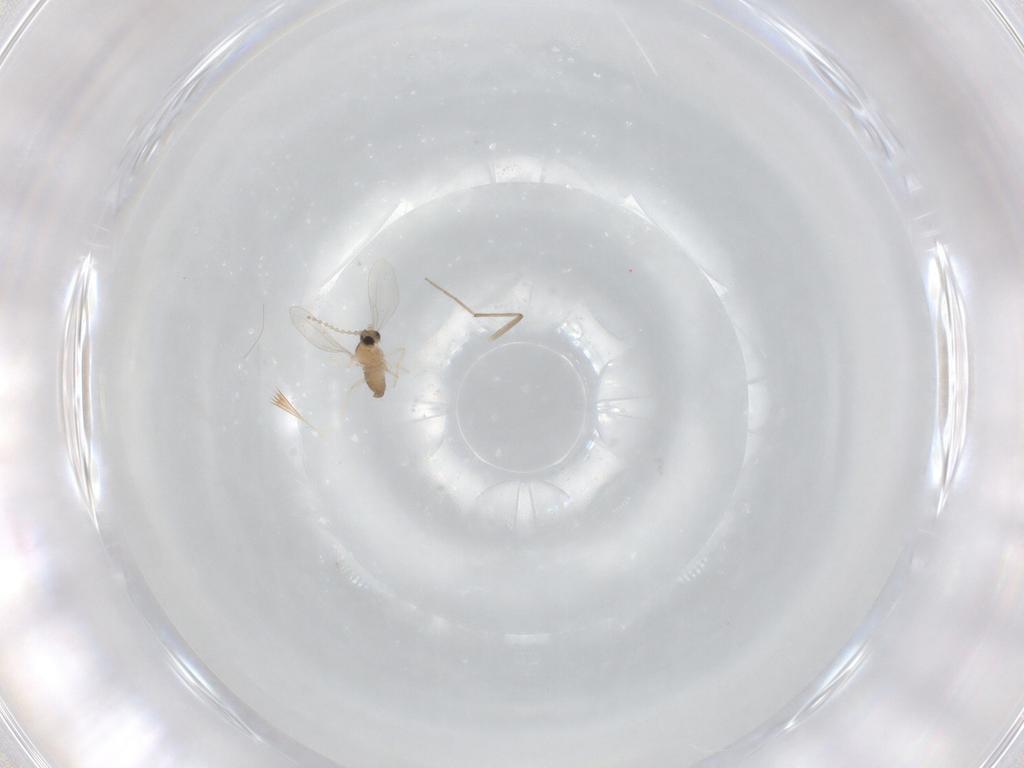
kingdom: Animalia
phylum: Arthropoda
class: Insecta
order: Diptera
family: Cecidomyiidae
